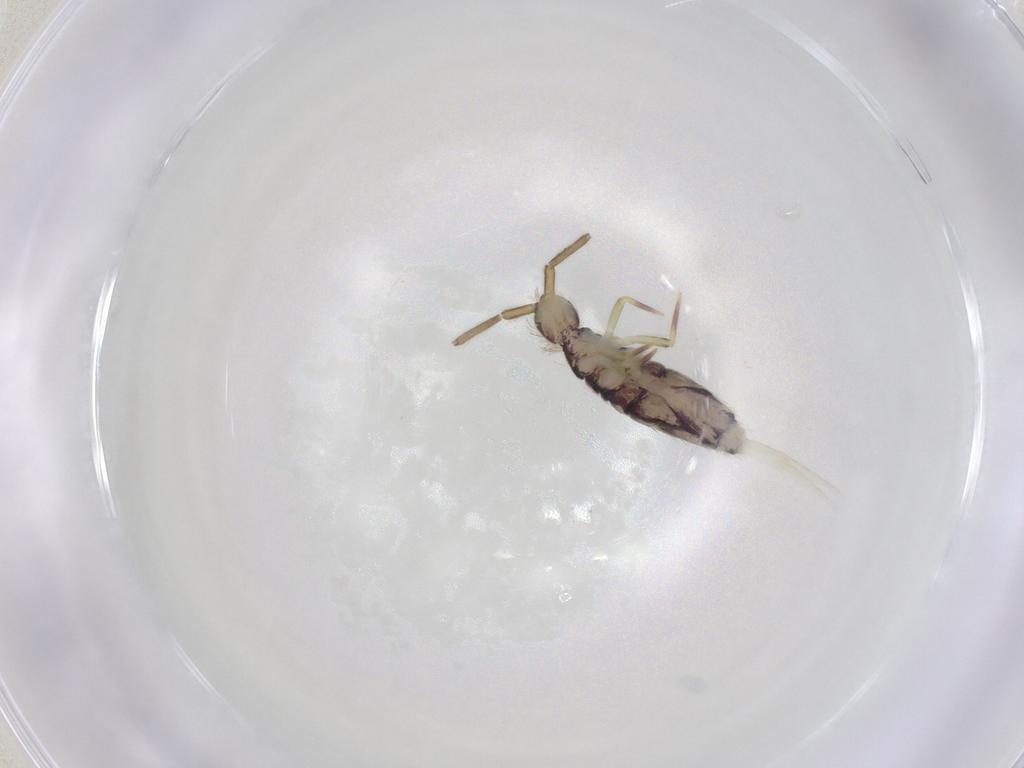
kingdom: Animalia
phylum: Arthropoda
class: Collembola
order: Entomobryomorpha
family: Entomobryidae
